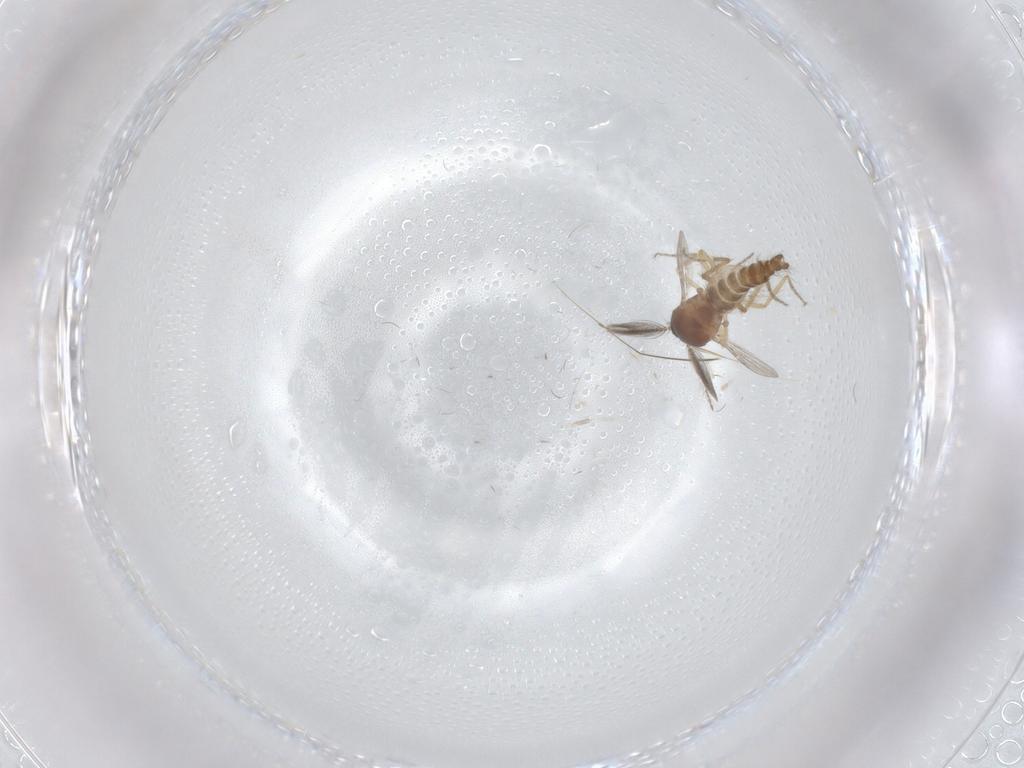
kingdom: Animalia
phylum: Arthropoda
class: Insecta
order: Diptera
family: Ceratopogonidae
